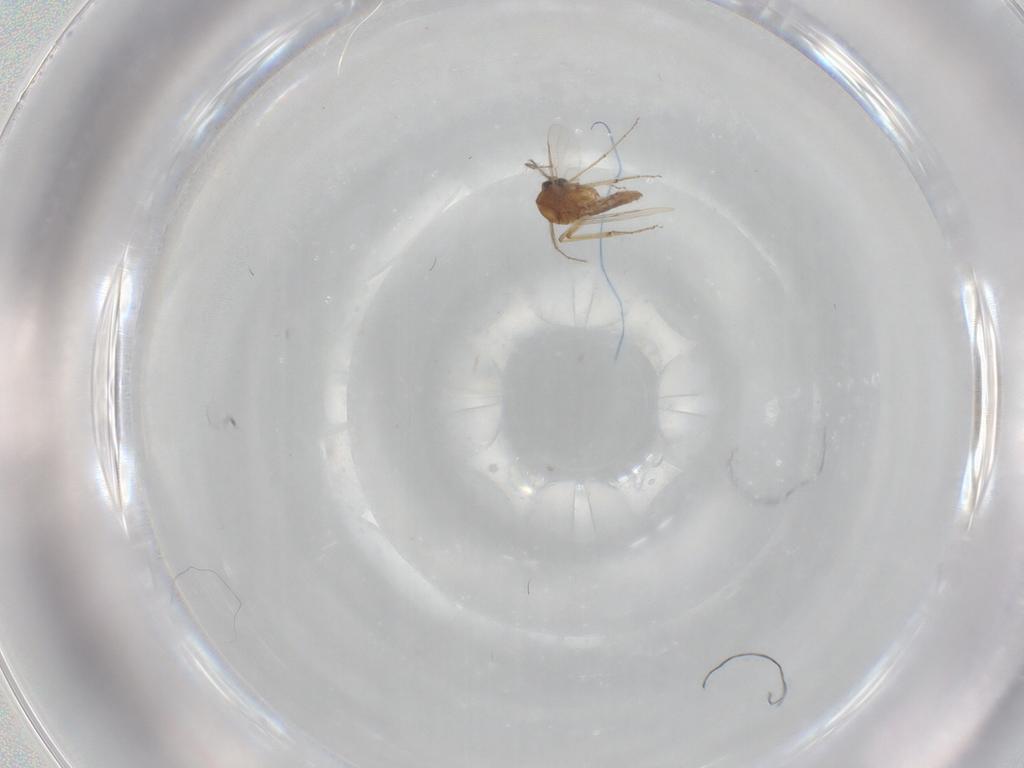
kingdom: Animalia
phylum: Arthropoda
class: Insecta
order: Diptera
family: Ceratopogonidae
